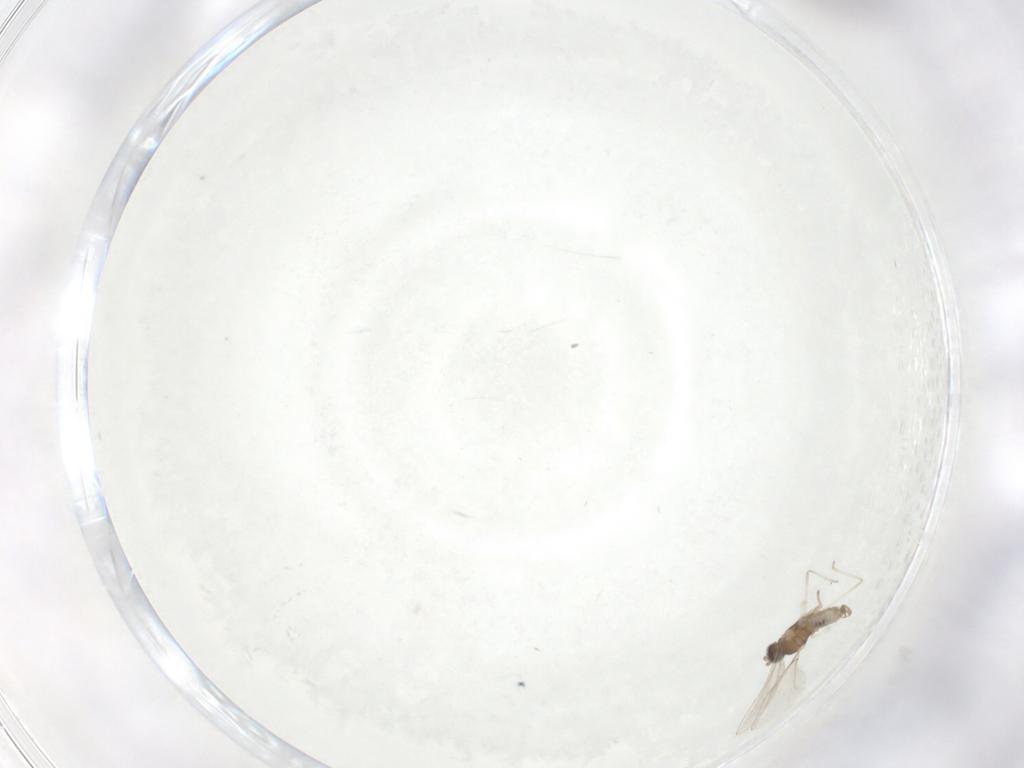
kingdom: Animalia
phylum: Arthropoda
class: Insecta
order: Diptera
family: Cecidomyiidae
